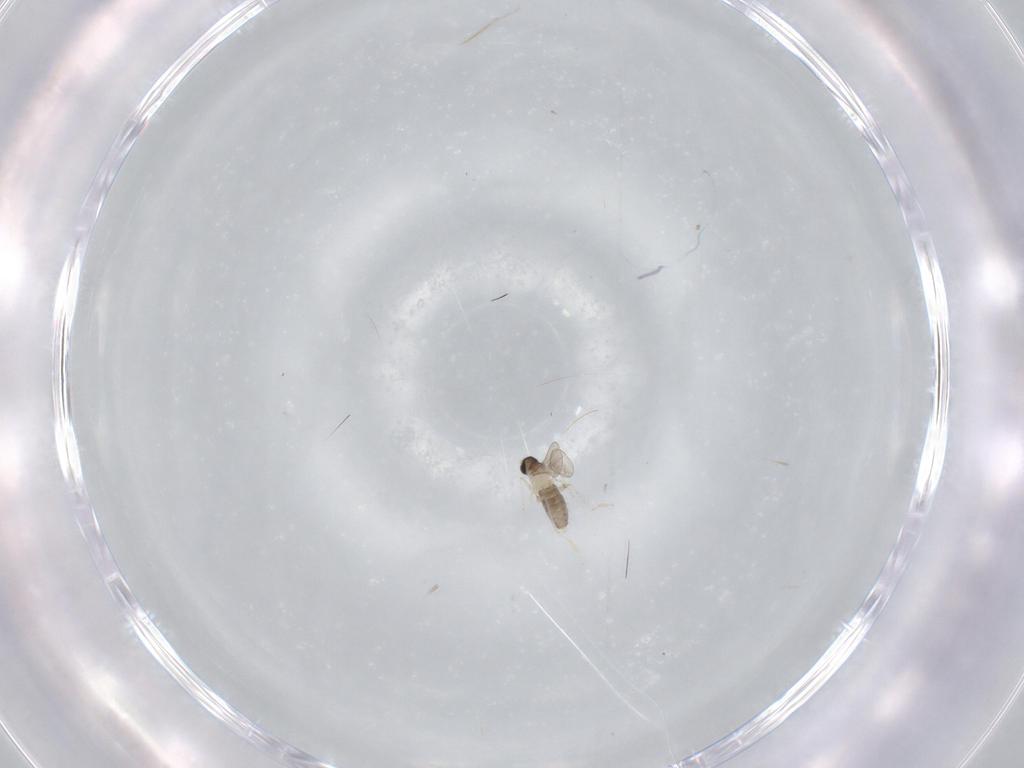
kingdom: Animalia
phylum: Arthropoda
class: Insecta
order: Diptera
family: Cecidomyiidae
